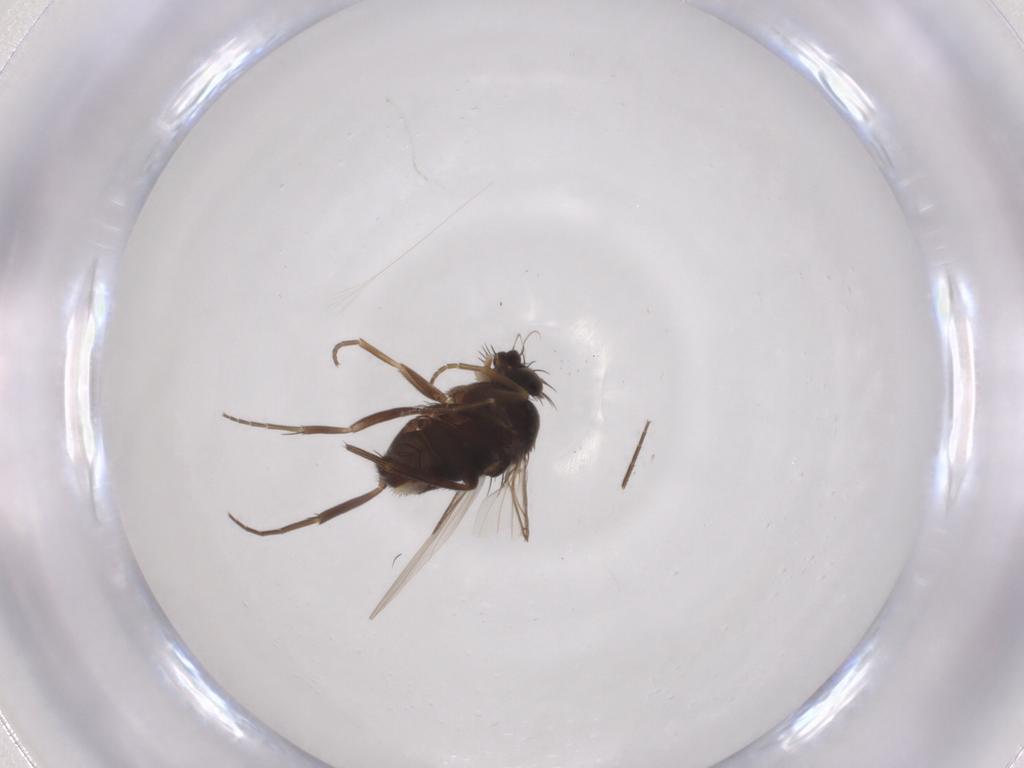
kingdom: Animalia
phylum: Arthropoda
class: Insecta
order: Diptera
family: Phoridae
